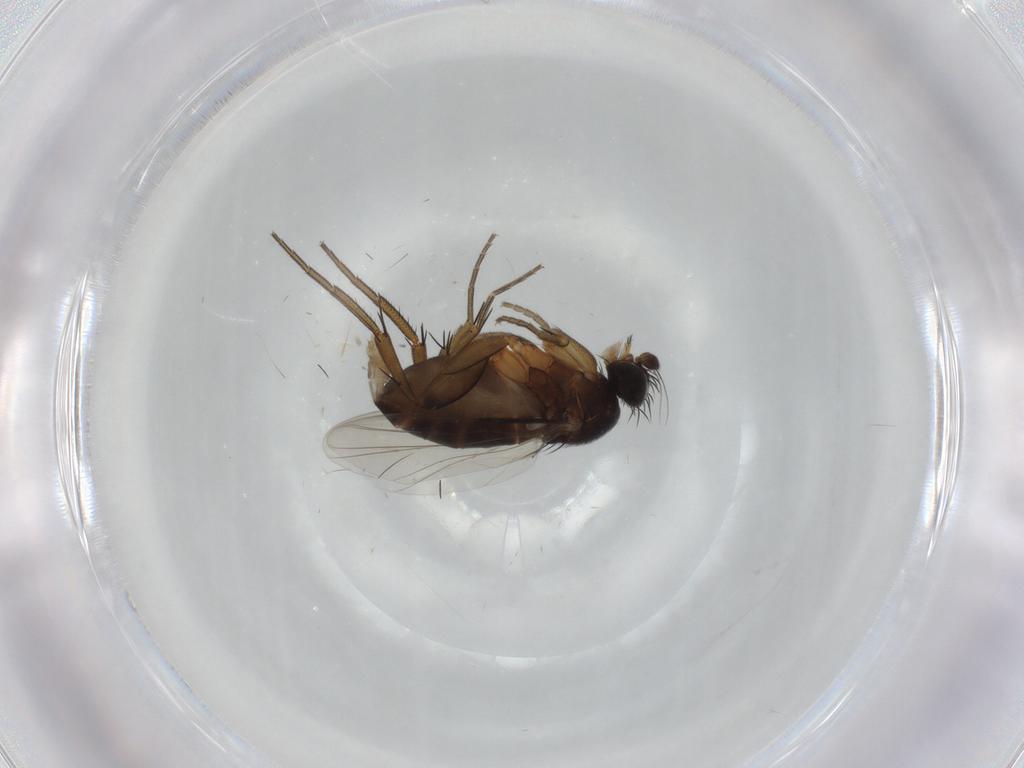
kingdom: Animalia
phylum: Arthropoda
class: Insecta
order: Diptera
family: Phoridae
